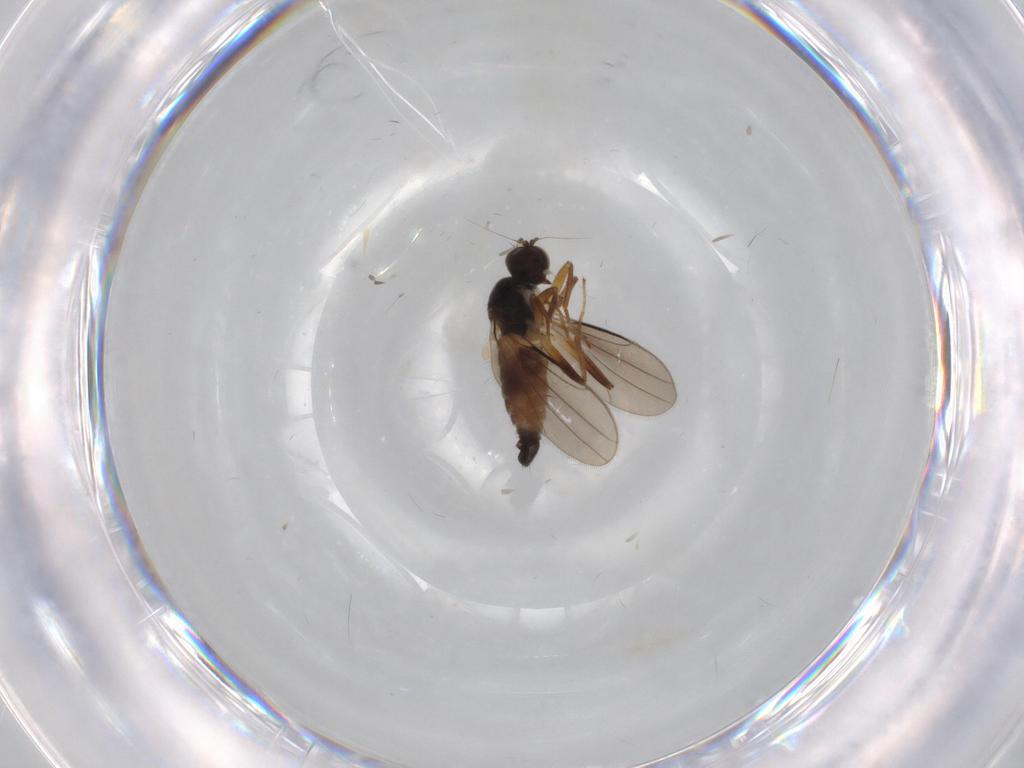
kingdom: Animalia
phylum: Arthropoda
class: Insecta
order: Diptera
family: Hybotidae
